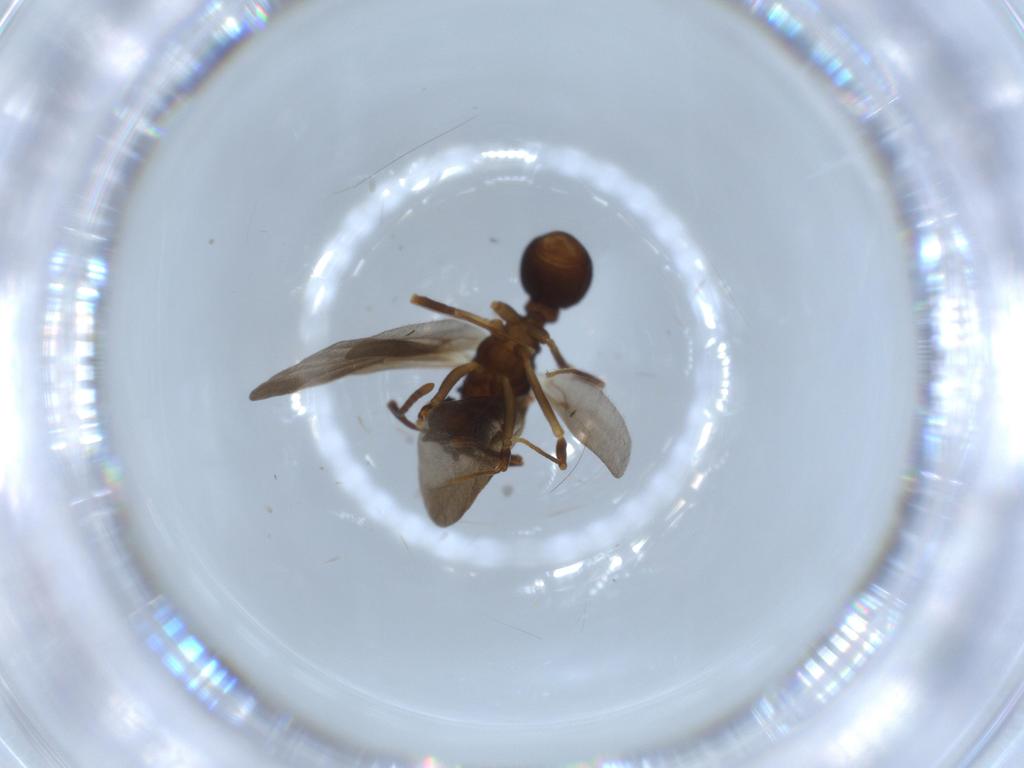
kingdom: Animalia
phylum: Arthropoda
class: Insecta
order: Hymenoptera
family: Formicidae
